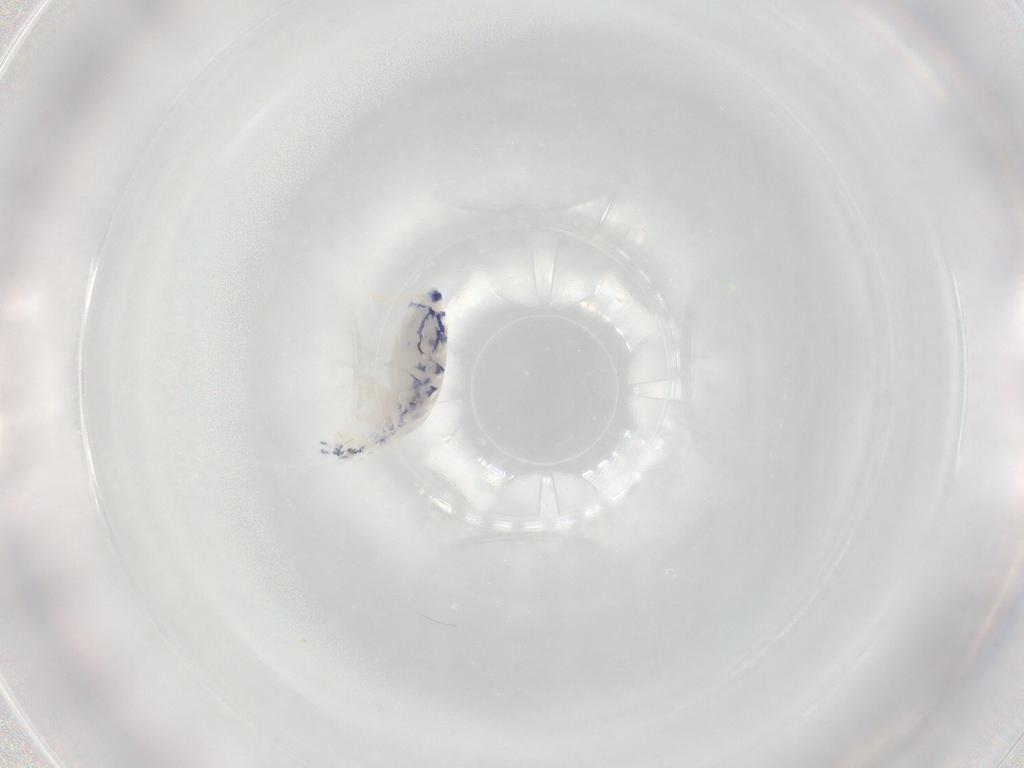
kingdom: Animalia
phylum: Arthropoda
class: Collembola
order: Entomobryomorpha
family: Entomobryidae
